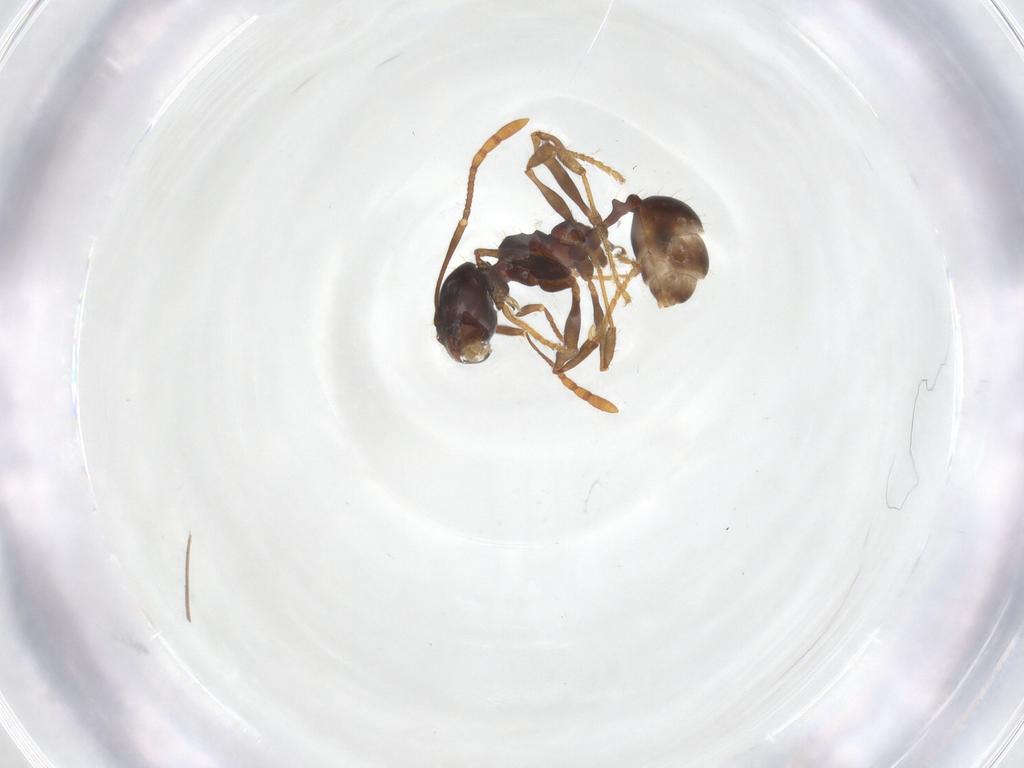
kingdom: Animalia
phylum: Arthropoda
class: Insecta
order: Hymenoptera
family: Formicidae
